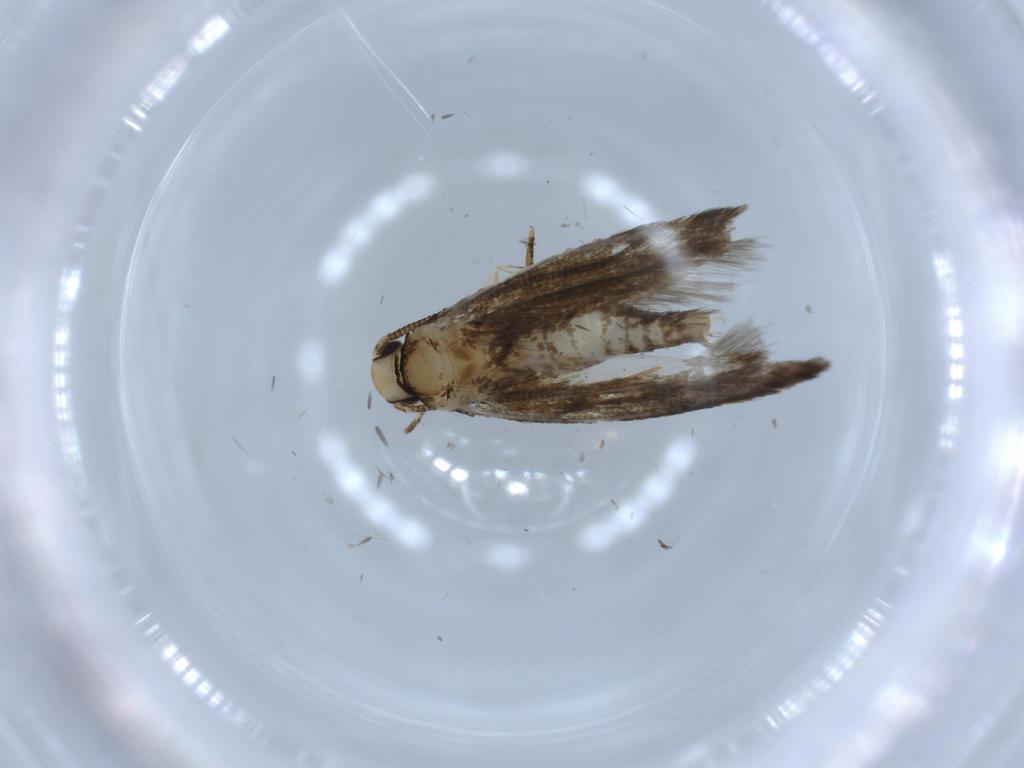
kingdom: Animalia
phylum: Arthropoda
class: Insecta
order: Lepidoptera
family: Tineidae
